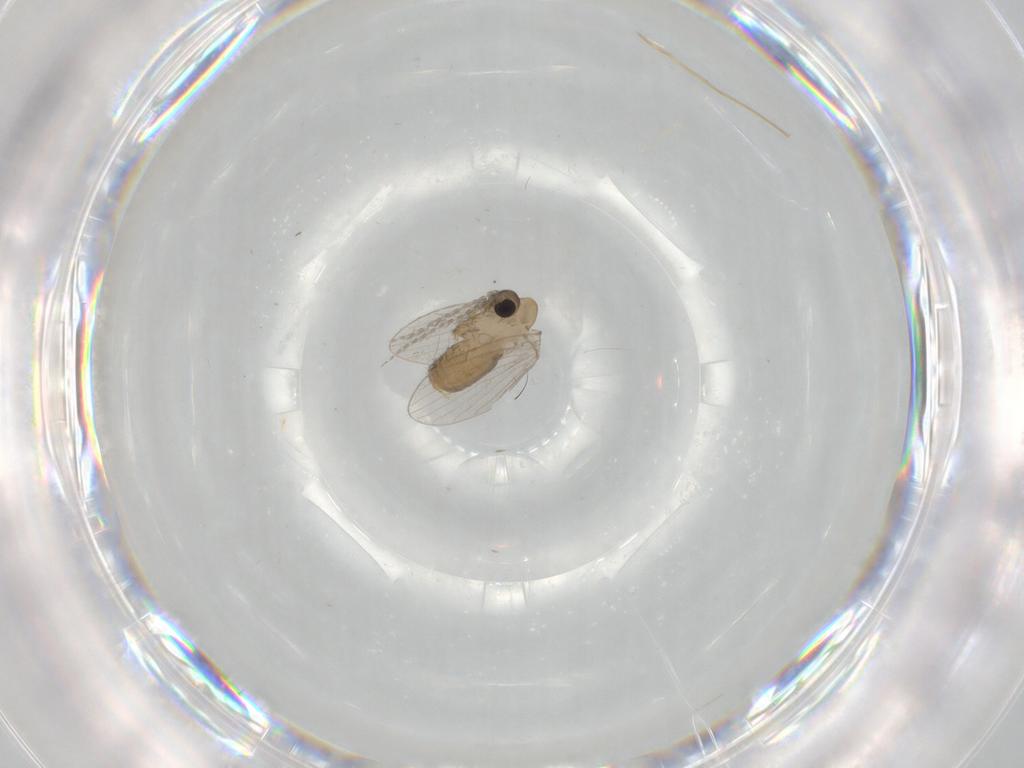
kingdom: Animalia
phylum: Arthropoda
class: Insecta
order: Diptera
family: Psychodidae
